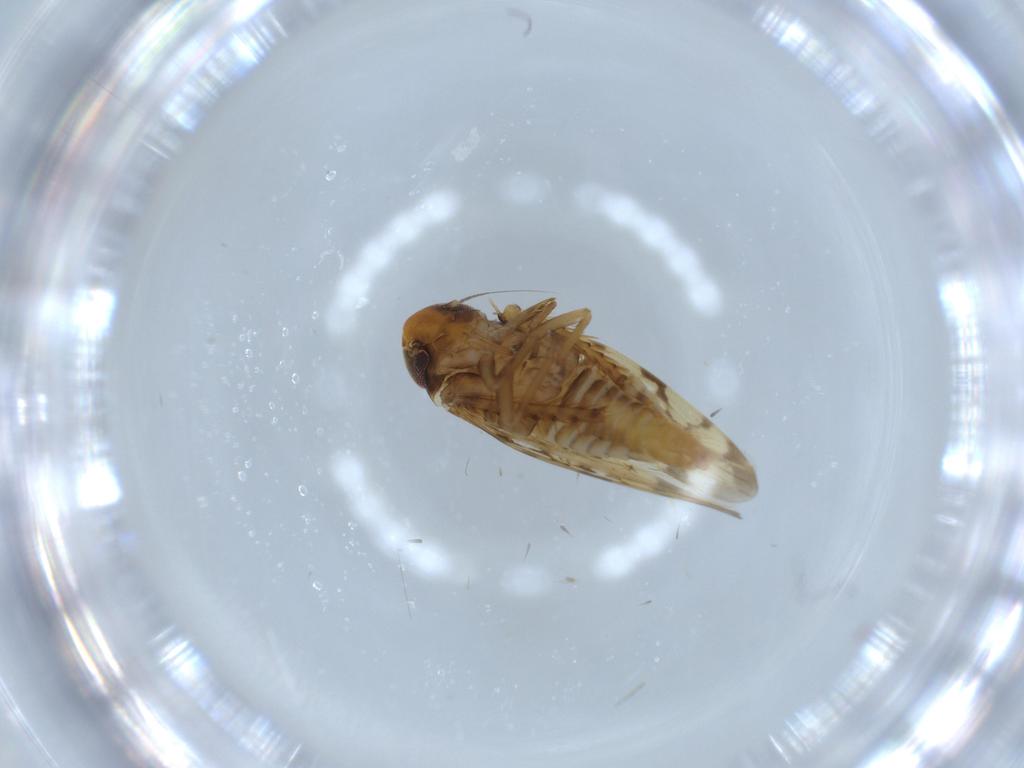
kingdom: Animalia
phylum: Arthropoda
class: Insecta
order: Hemiptera
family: Cicadellidae
